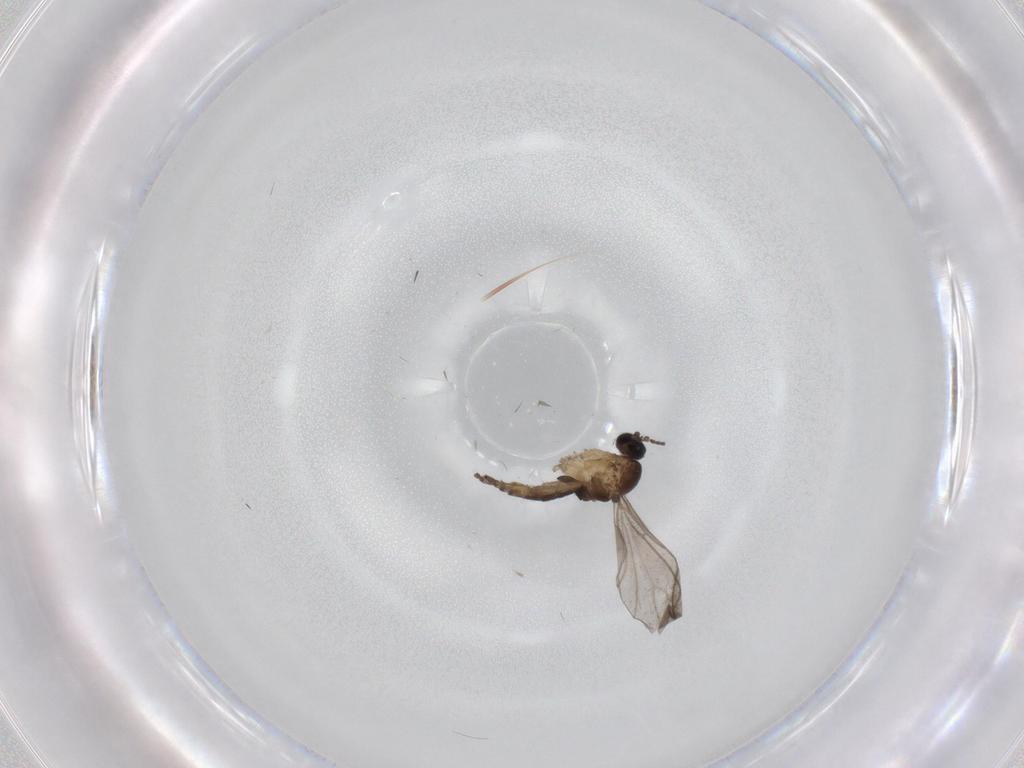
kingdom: Animalia
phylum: Arthropoda
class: Insecta
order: Diptera
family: Sciaridae
